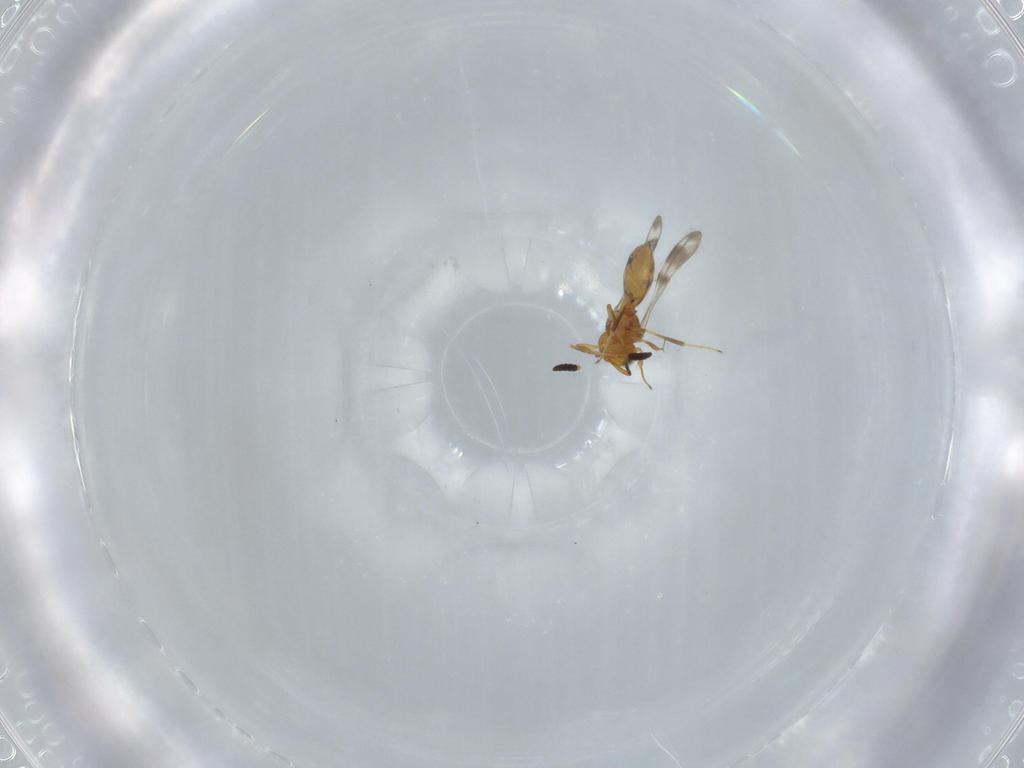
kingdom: Animalia
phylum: Arthropoda
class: Insecta
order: Hymenoptera
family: Scelionidae
